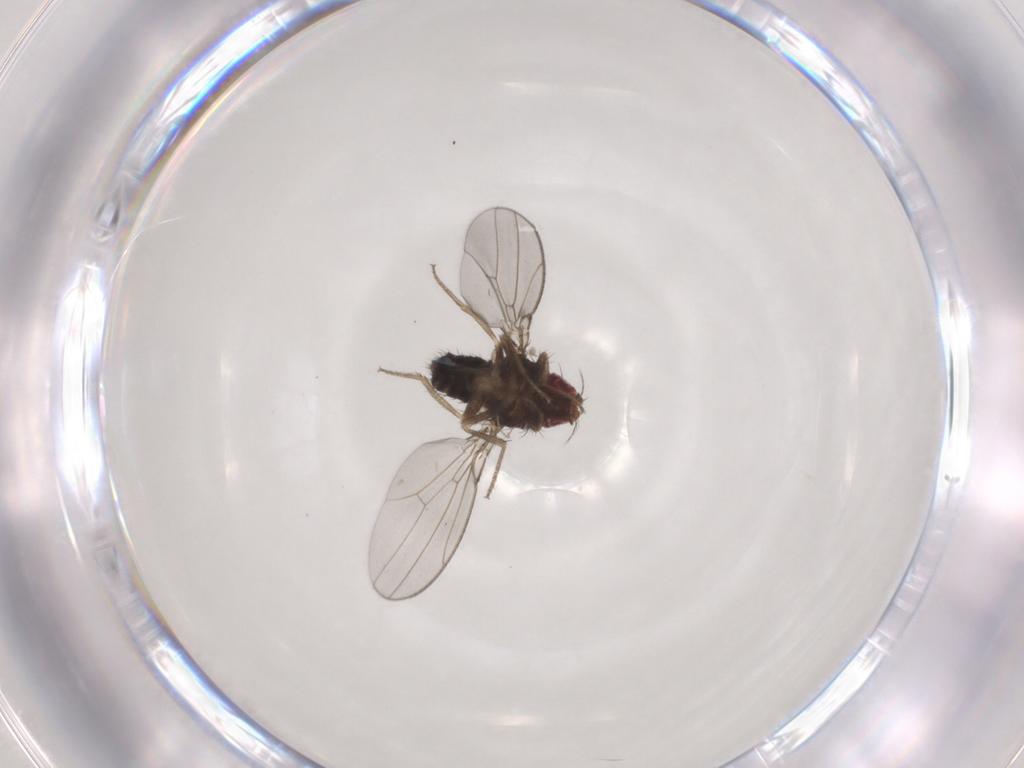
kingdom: Animalia
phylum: Arthropoda
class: Insecta
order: Diptera
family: Drosophilidae
